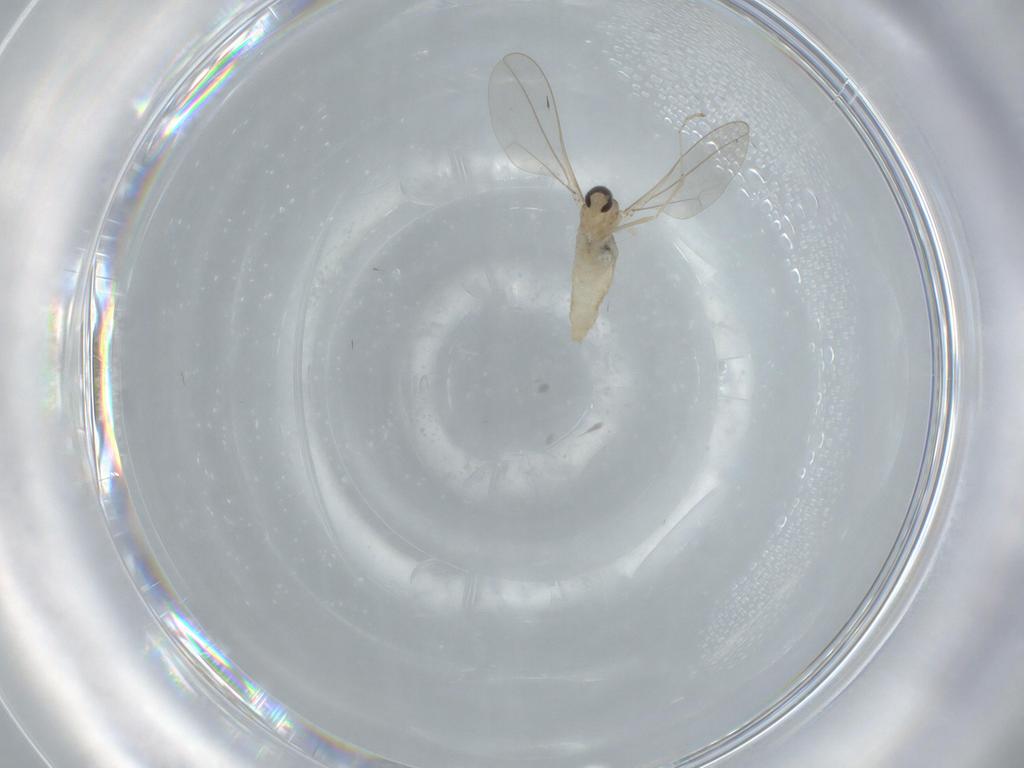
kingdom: Animalia
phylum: Arthropoda
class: Insecta
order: Diptera
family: Cecidomyiidae
